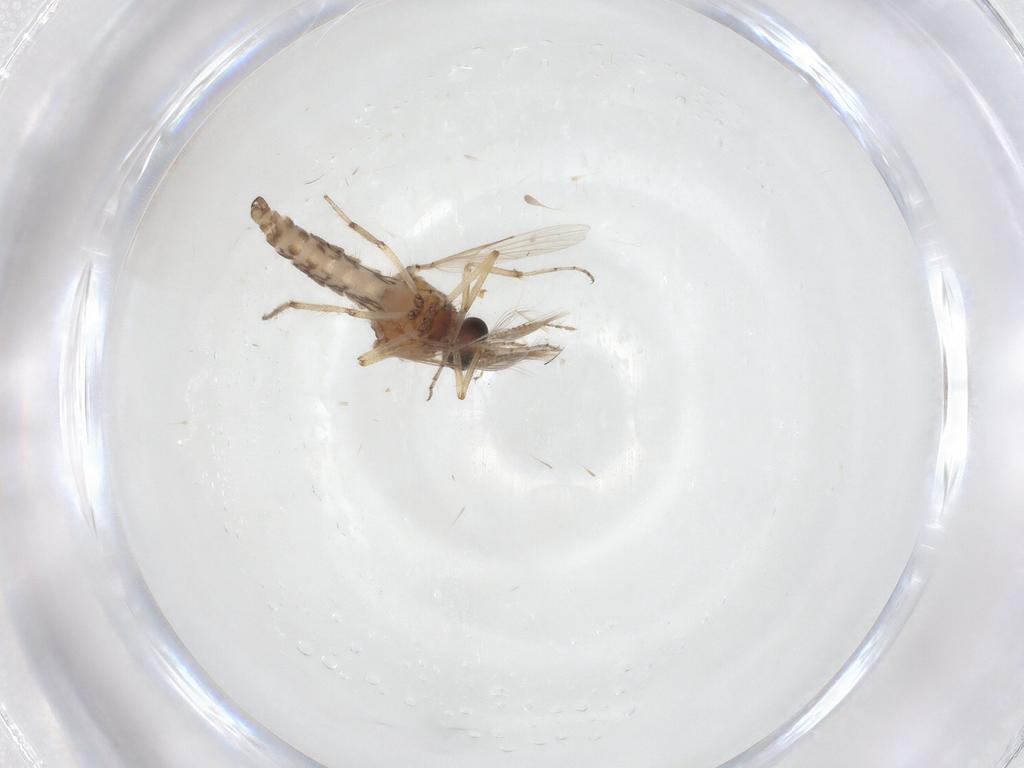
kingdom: Animalia
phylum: Arthropoda
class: Insecta
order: Diptera
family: Ceratopogonidae
